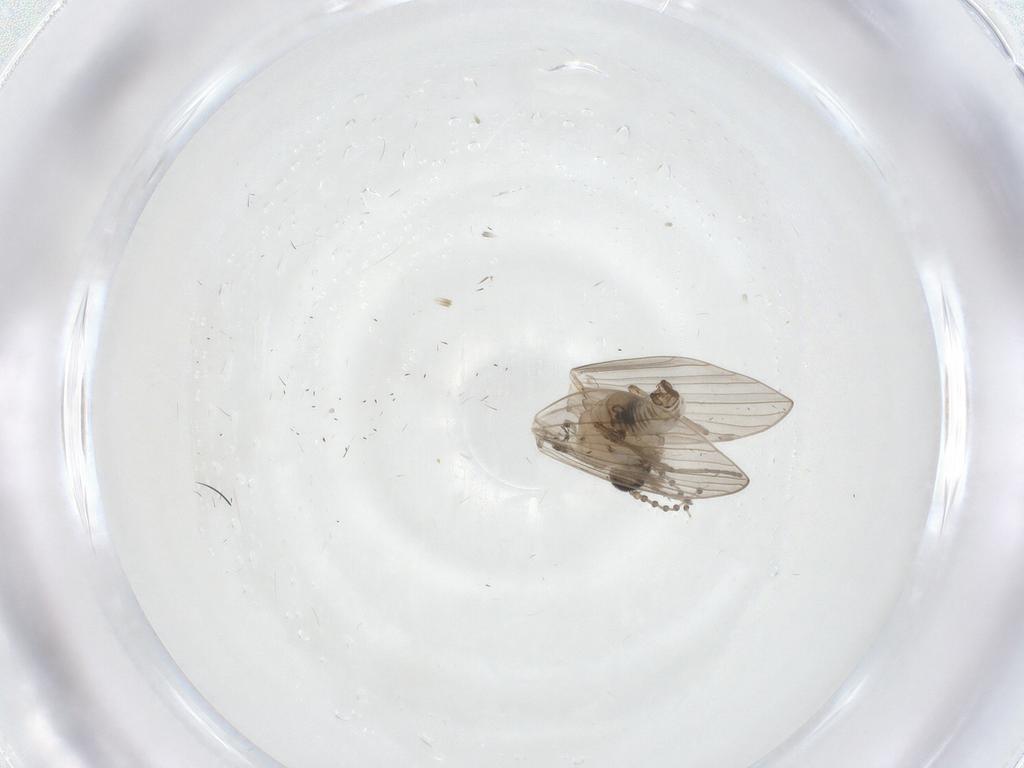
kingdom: Animalia
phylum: Arthropoda
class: Insecta
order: Diptera
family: Psychodidae
